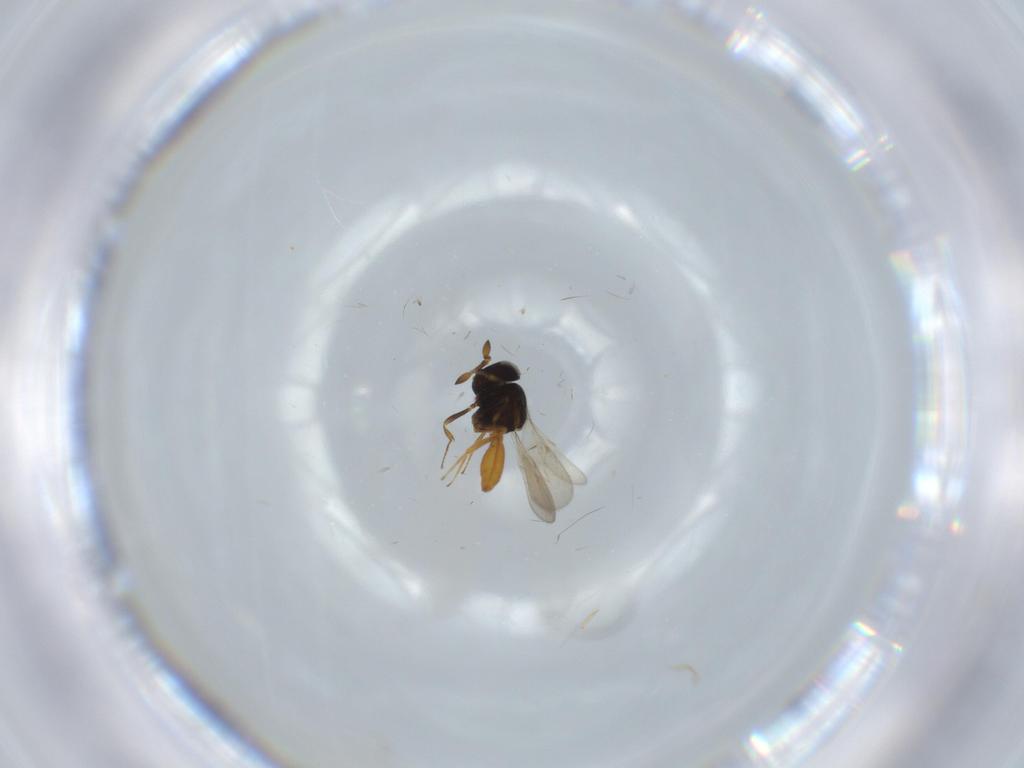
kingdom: Animalia
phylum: Arthropoda
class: Insecta
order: Hymenoptera
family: Scelionidae
